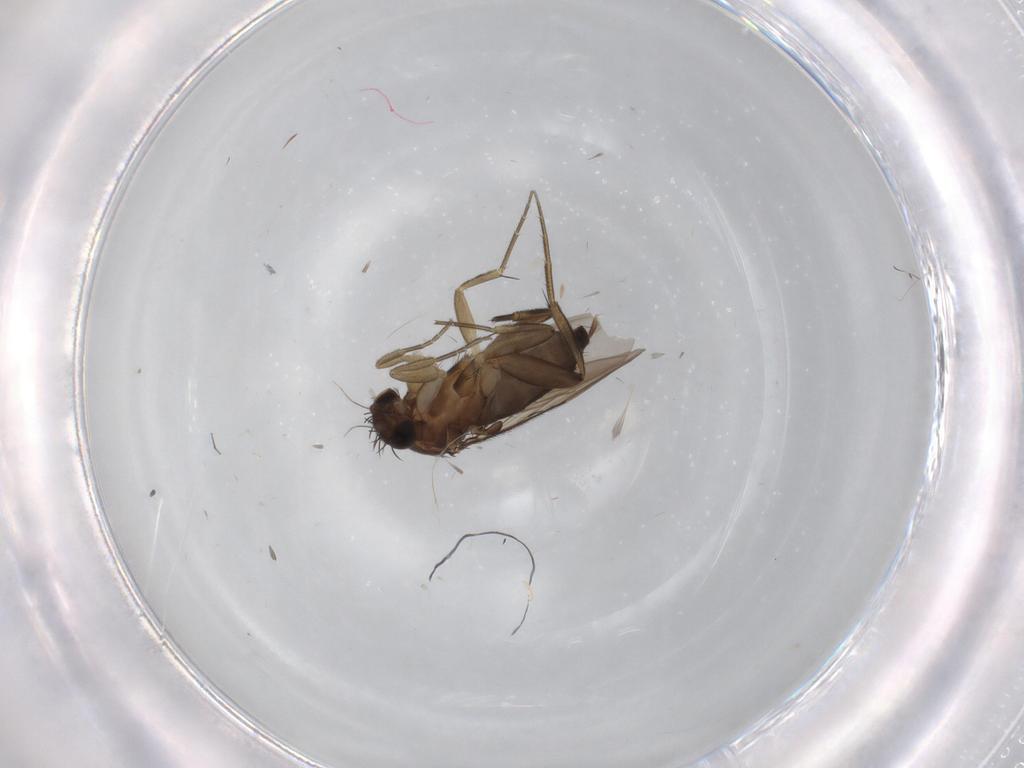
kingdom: Animalia
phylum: Arthropoda
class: Insecta
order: Diptera
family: Phoridae
